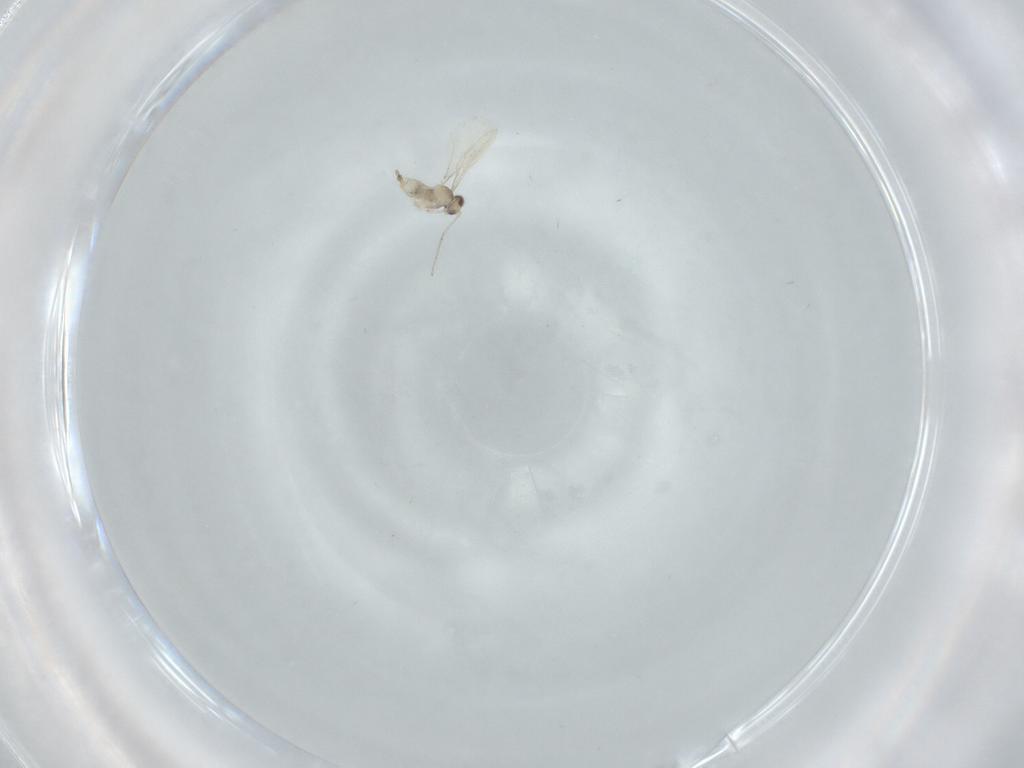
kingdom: Animalia
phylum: Arthropoda
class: Insecta
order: Diptera
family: Cecidomyiidae
